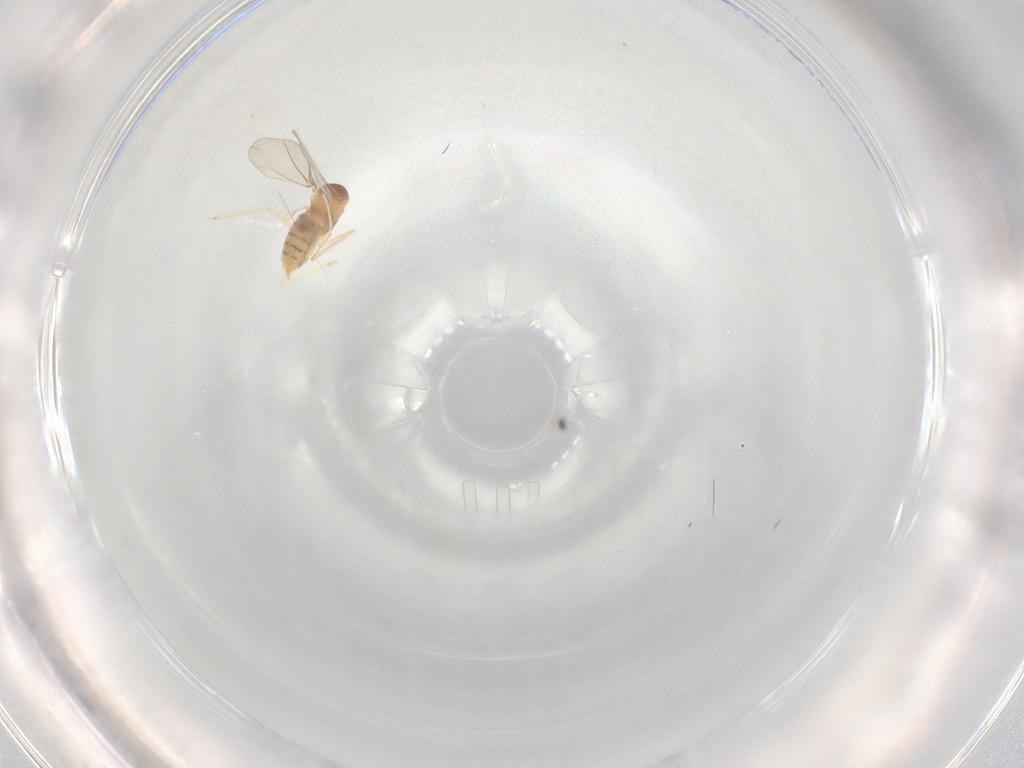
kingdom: Animalia
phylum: Arthropoda
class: Insecta
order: Diptera
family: Cecidomyiidae
